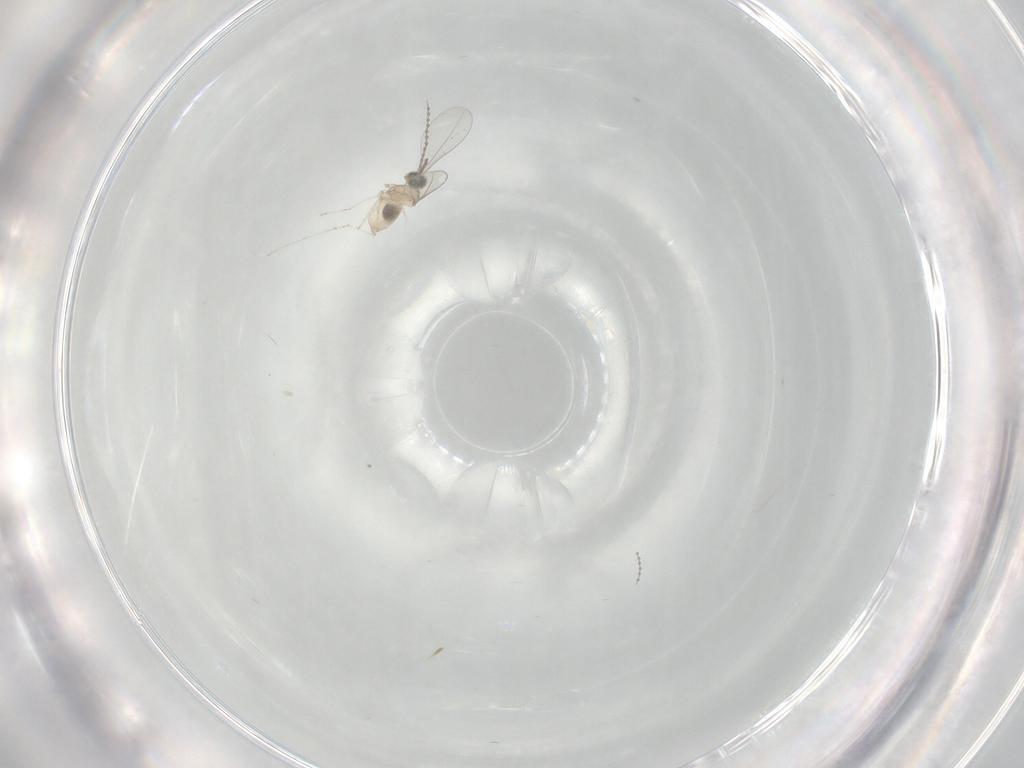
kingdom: Animalia
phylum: Arthropoda
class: Insecta
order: Diptera
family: Cecidomyiidae
